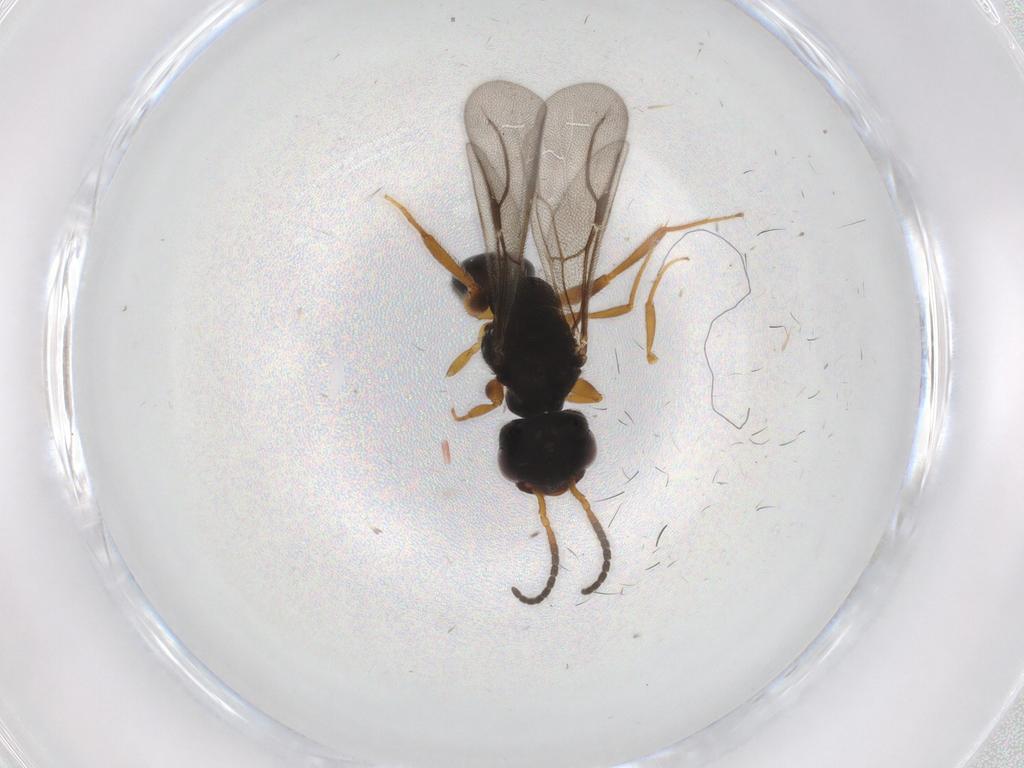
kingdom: Animalia
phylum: Arthropoda
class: Insecta
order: Hymenoptera
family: Bethylidae
